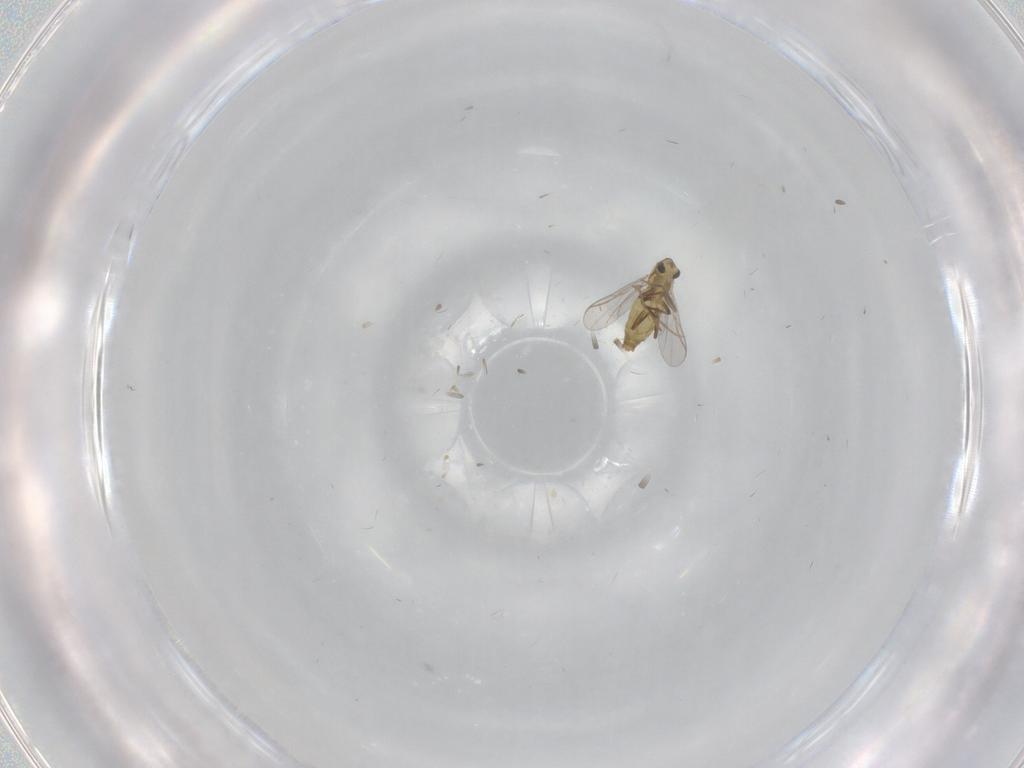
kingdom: Animalia
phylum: Arthropoda
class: Insecta
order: Diptera
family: Chironomidae
